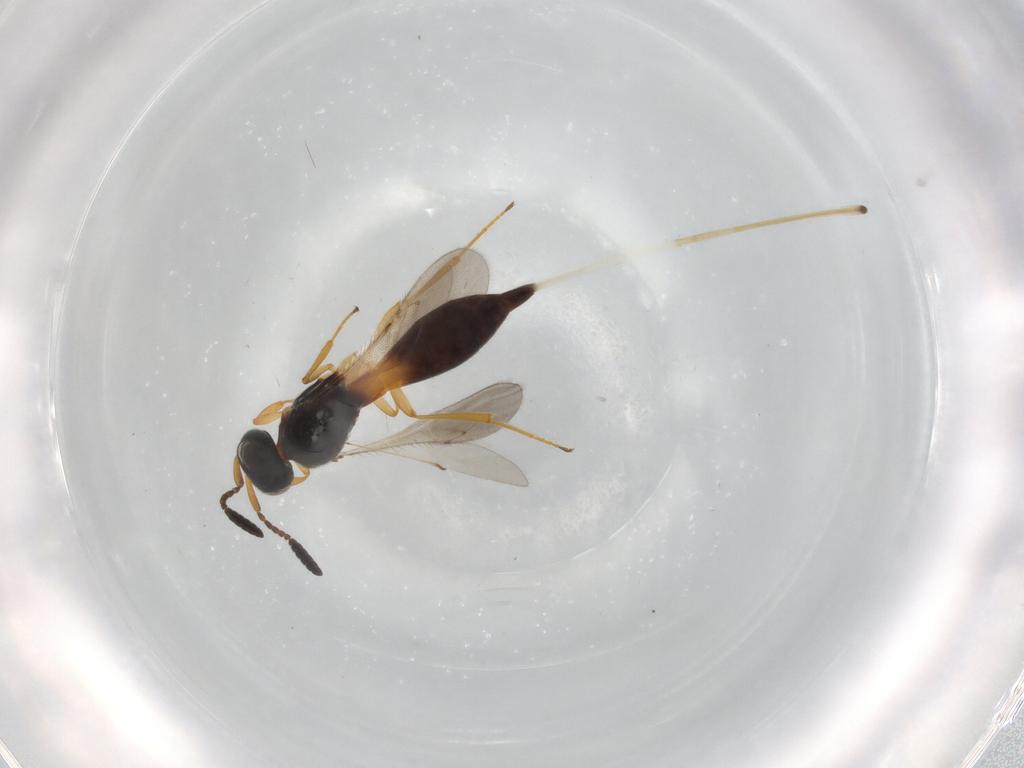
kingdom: Animalia
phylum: Arthropoda
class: Insecta
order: Hymenoptera
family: Scelionidae
